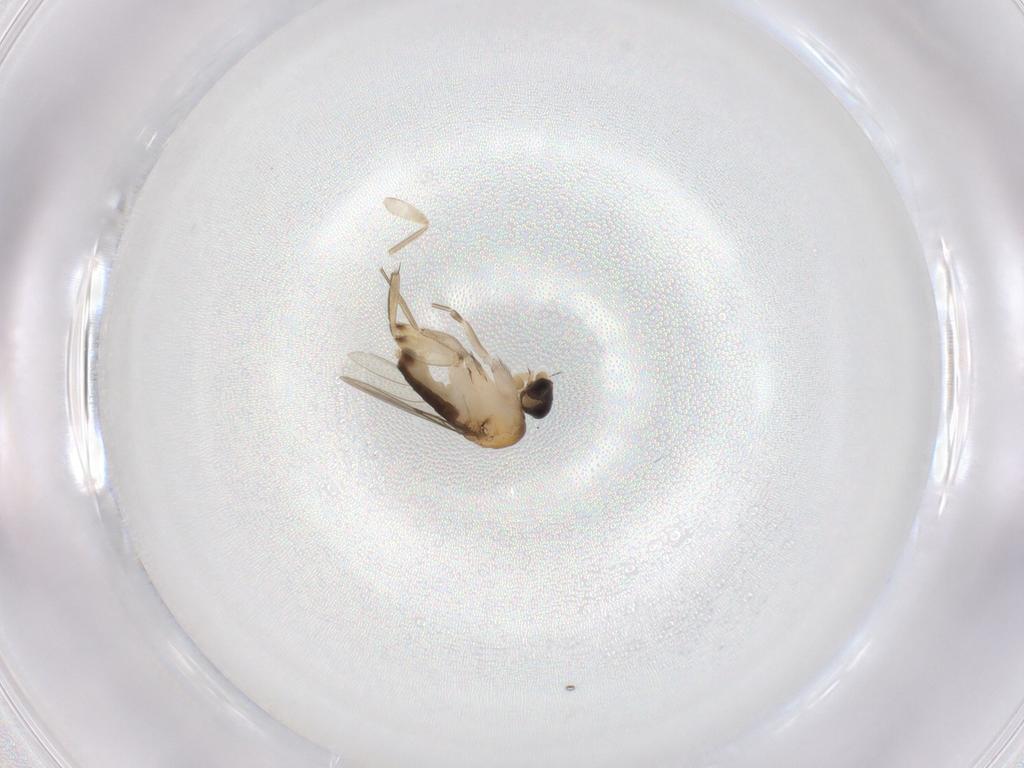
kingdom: Animalia
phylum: Arthropoda
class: Insecta
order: Diptera
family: Phoridae
